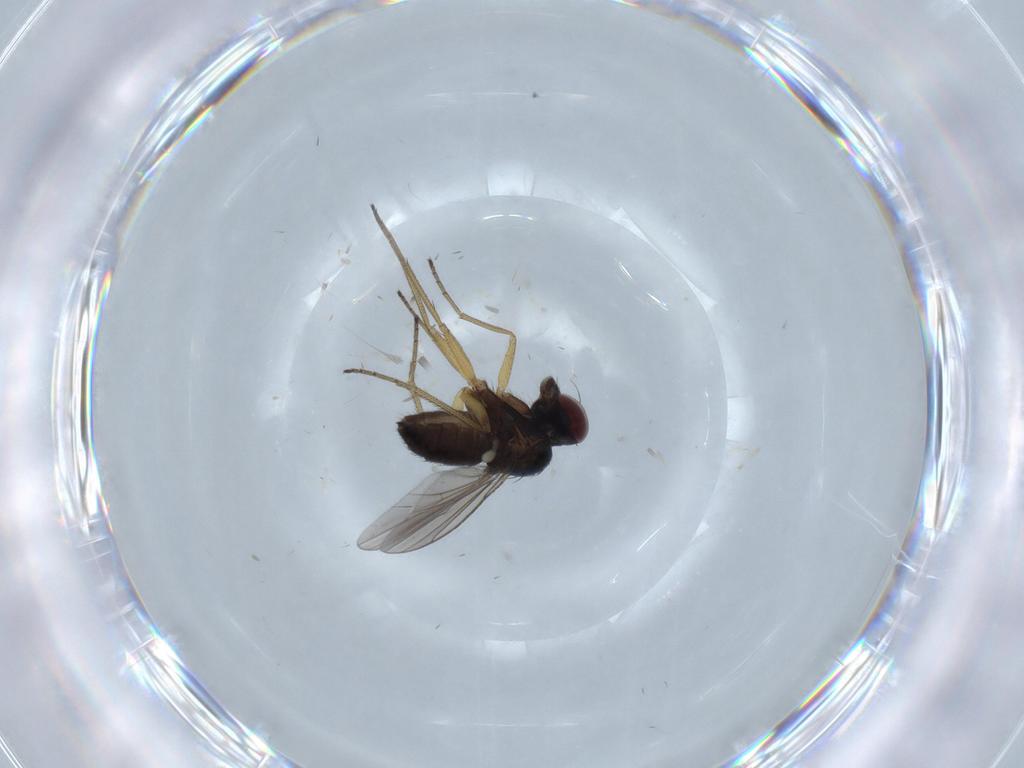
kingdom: Animalia
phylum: Arthropoda
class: Insecta
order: Diptera
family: Dolichopodidae
